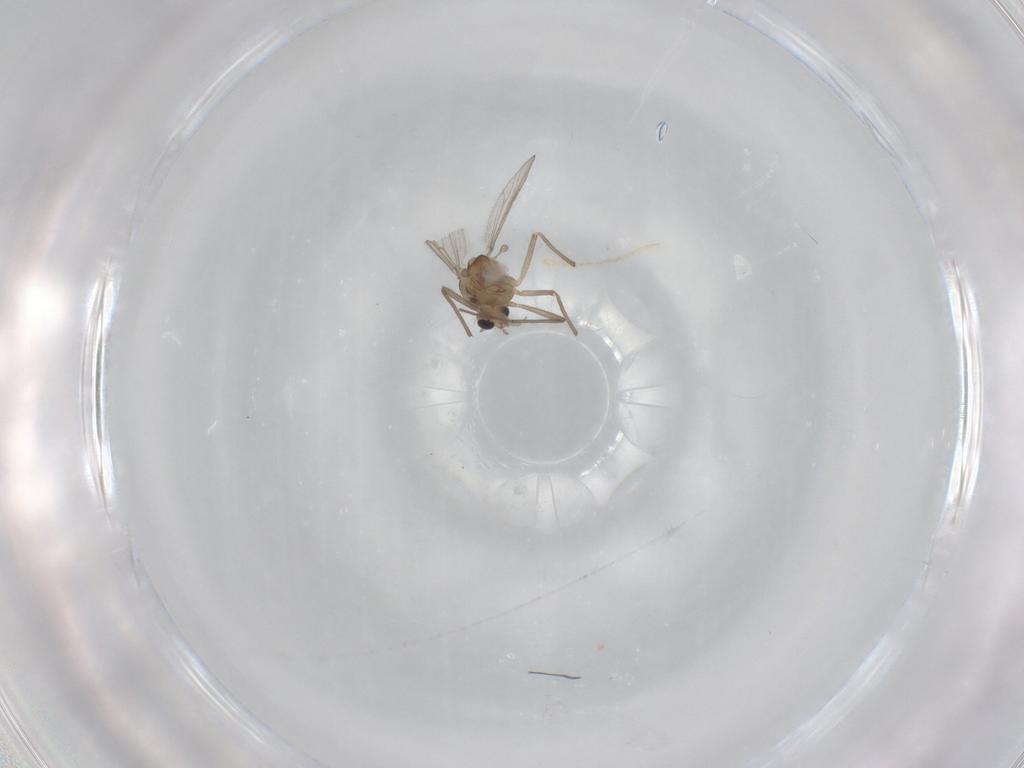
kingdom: Animalia
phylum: Arthropoda
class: Insecta
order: Diptera
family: Chironomidae
